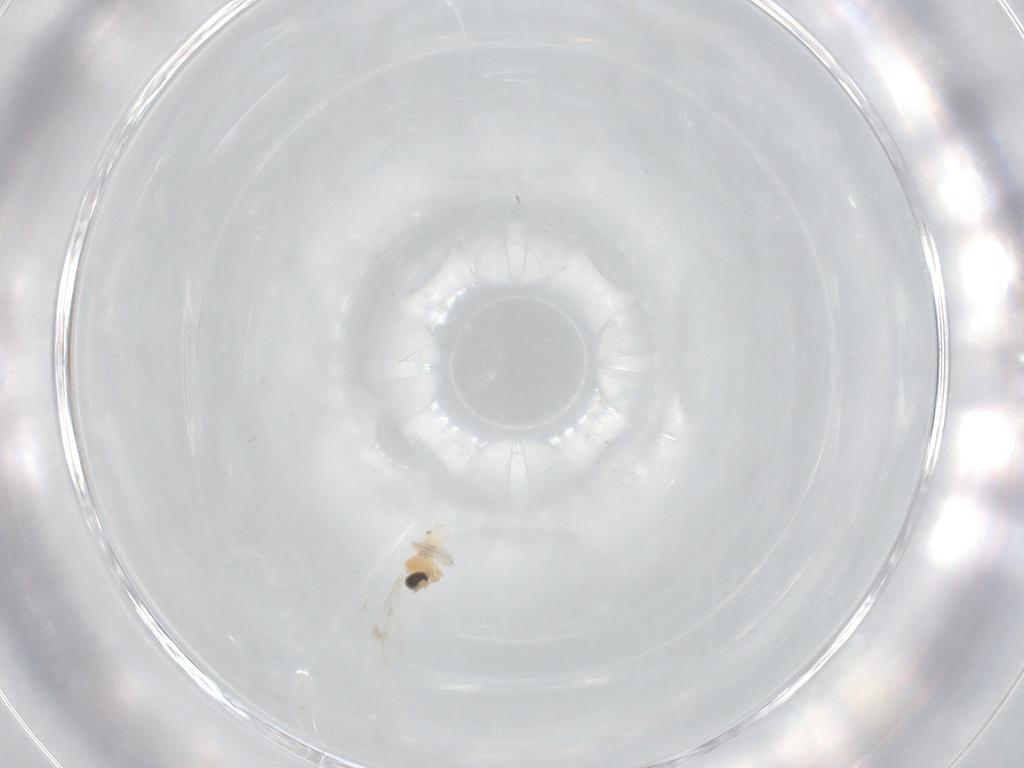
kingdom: Animalia
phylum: Arthropoda
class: Insecta
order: Diptera
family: Cecidomyiidae
